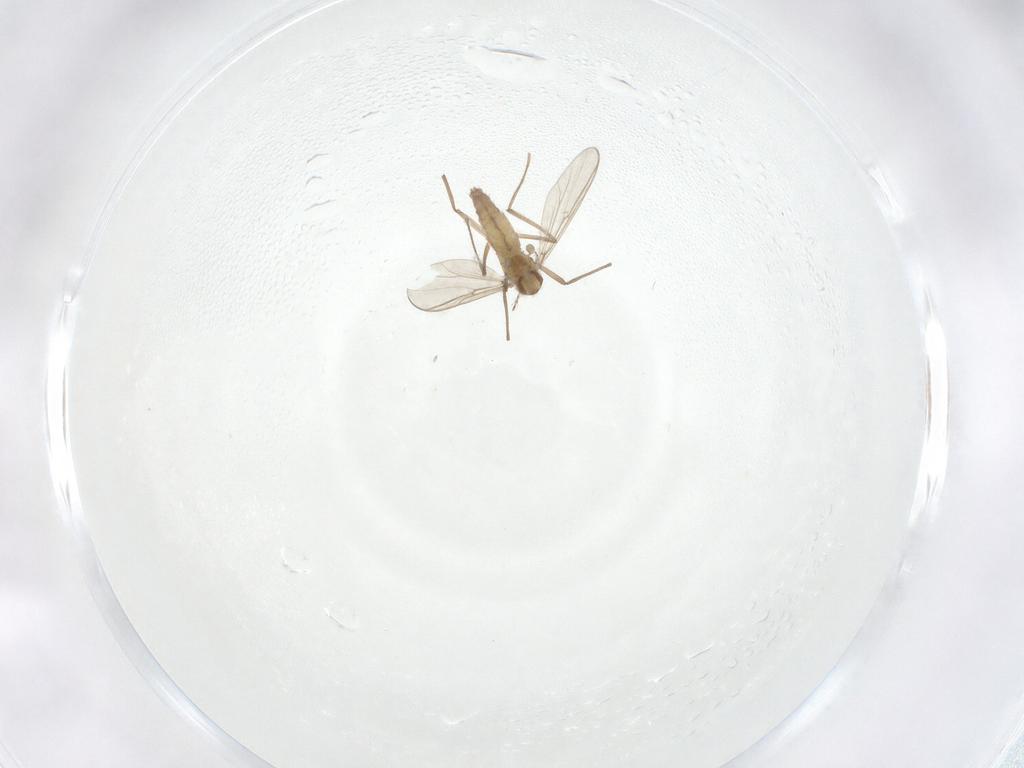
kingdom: Animalia
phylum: Arthropoda
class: Insecta
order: Diptera
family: Chironomidae
